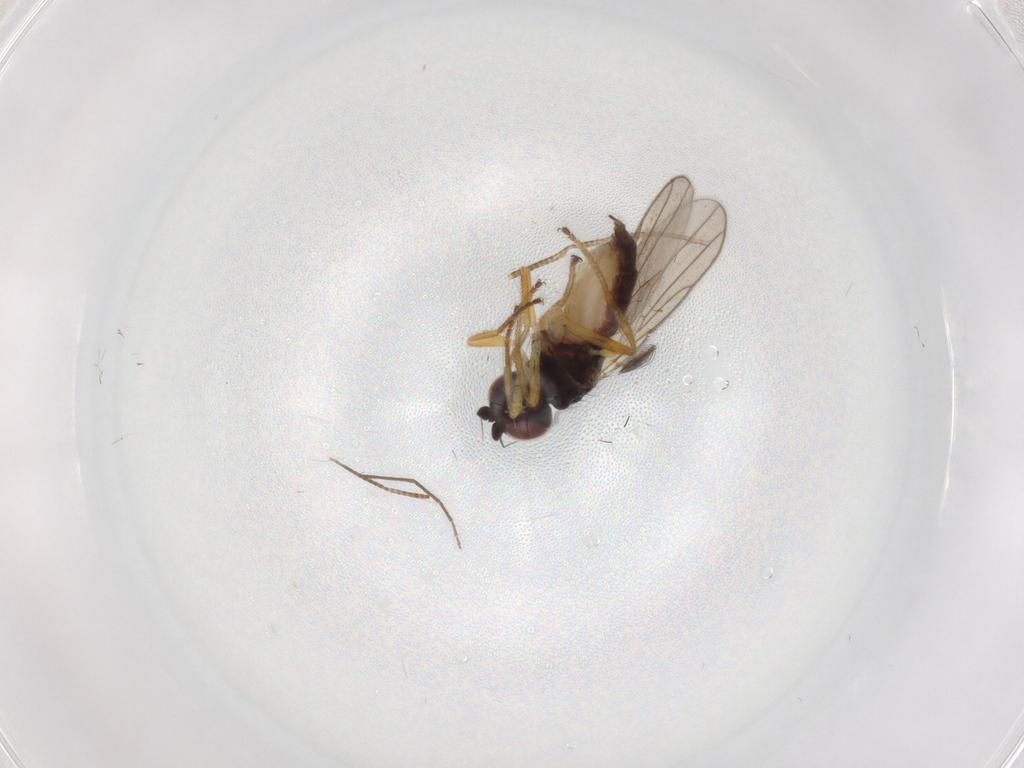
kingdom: Animalia
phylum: Arthropoda
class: Insecta
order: Diptera
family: Chloropidae
